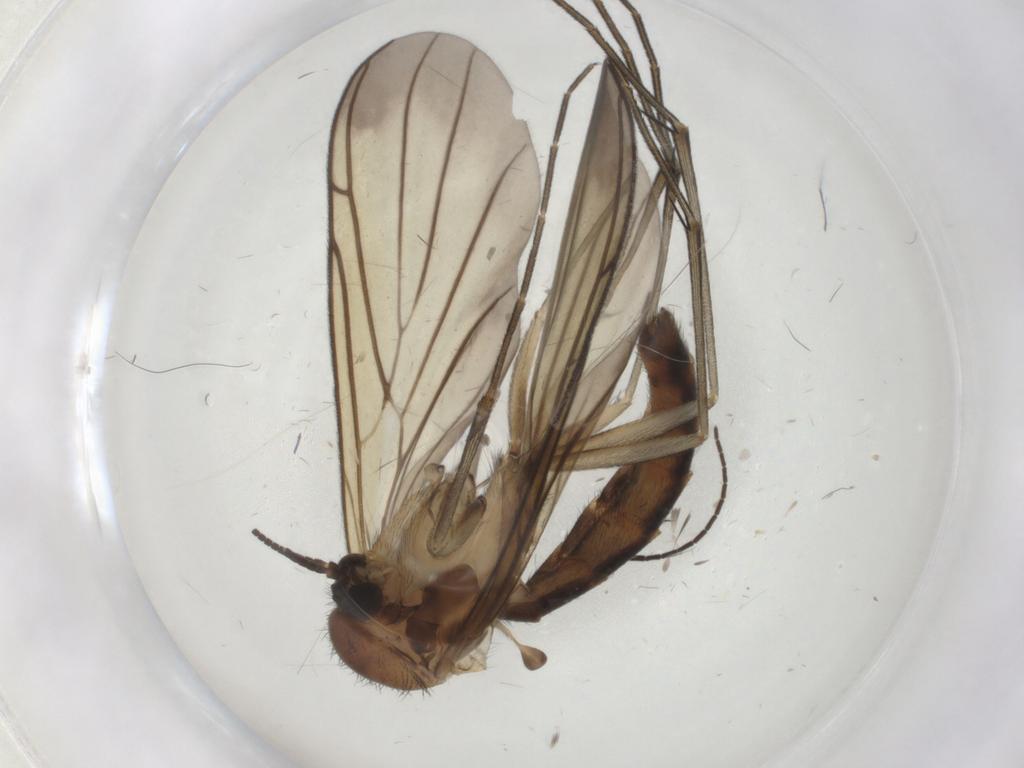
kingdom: Animalia
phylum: Arthropoda
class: Insecta
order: Diptera
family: Keroplatidae
